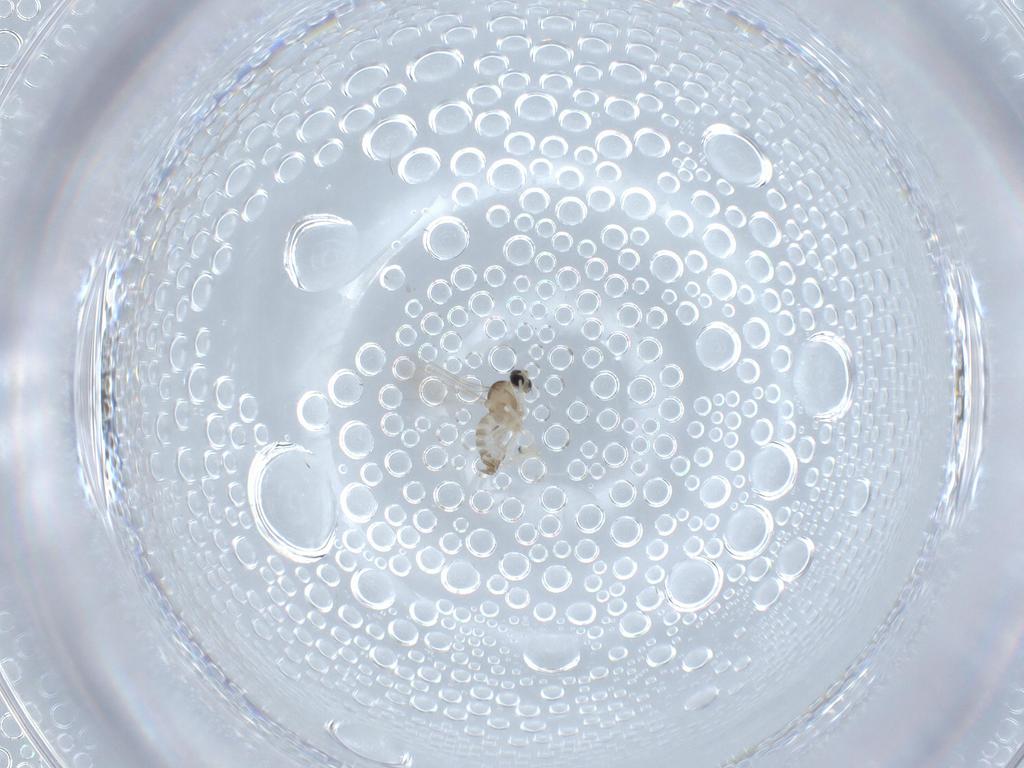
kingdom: Animalia
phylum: Arthropoda
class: Insecta
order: Diptera
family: Cecidomyiidae
